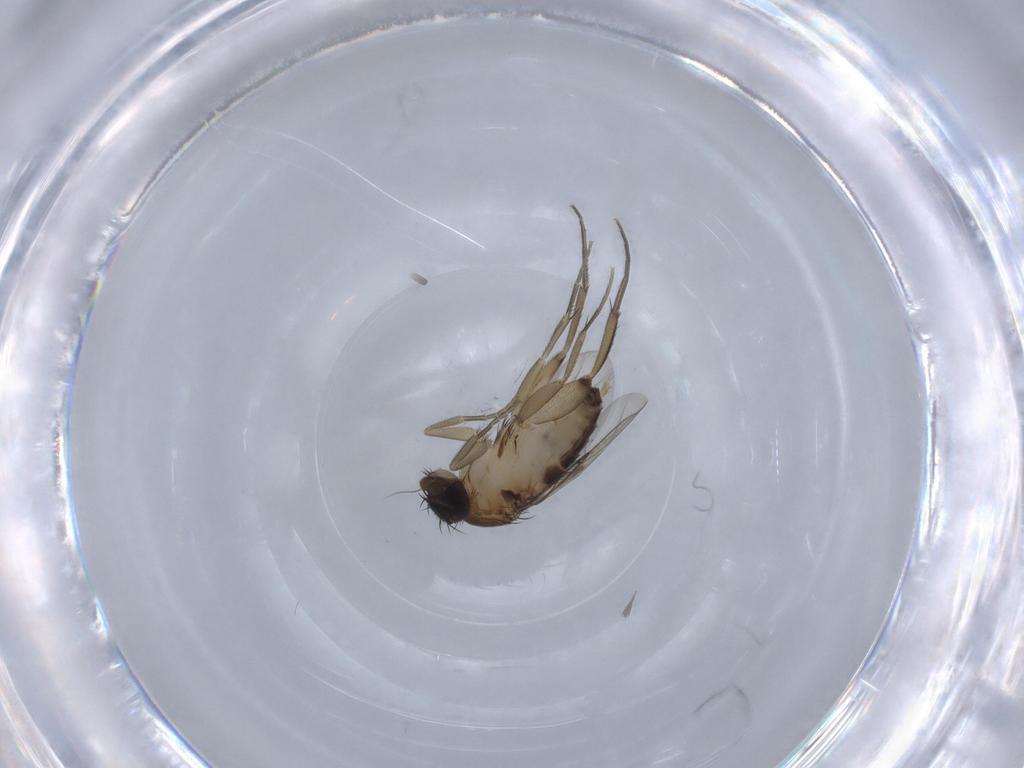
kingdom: Animalia
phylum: Arthropoda
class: Insecta
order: Diptera
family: Phoridae
